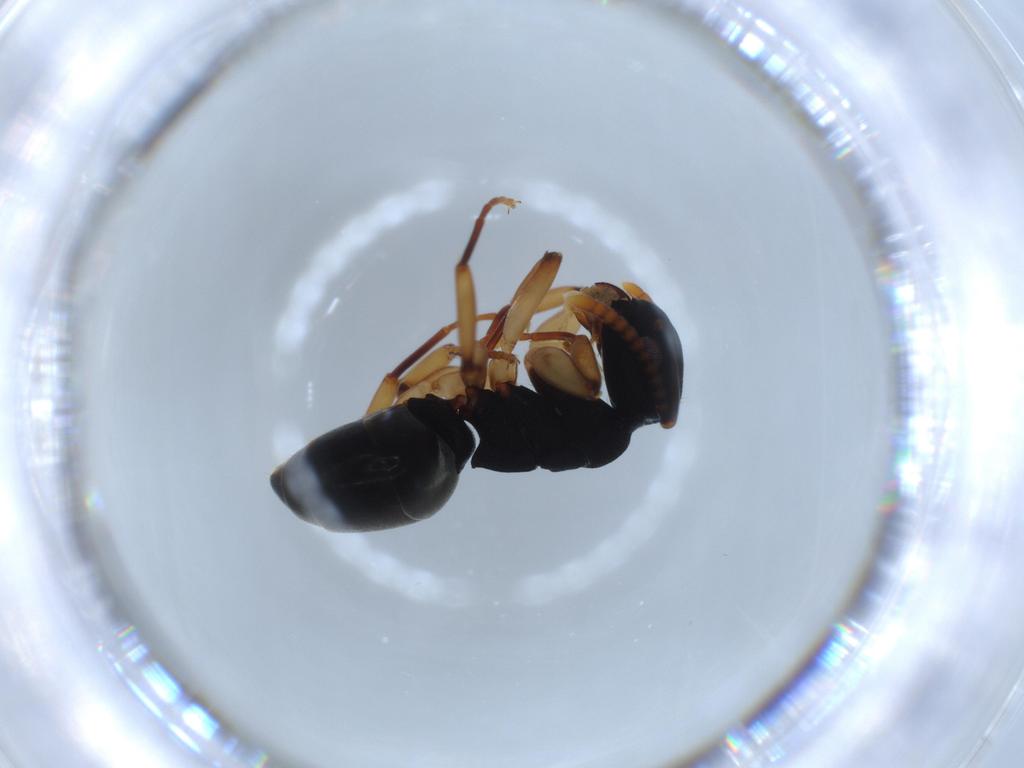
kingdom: Animalia
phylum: Arthropoda
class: Insecta
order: Hymenoptera
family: Formicidae
